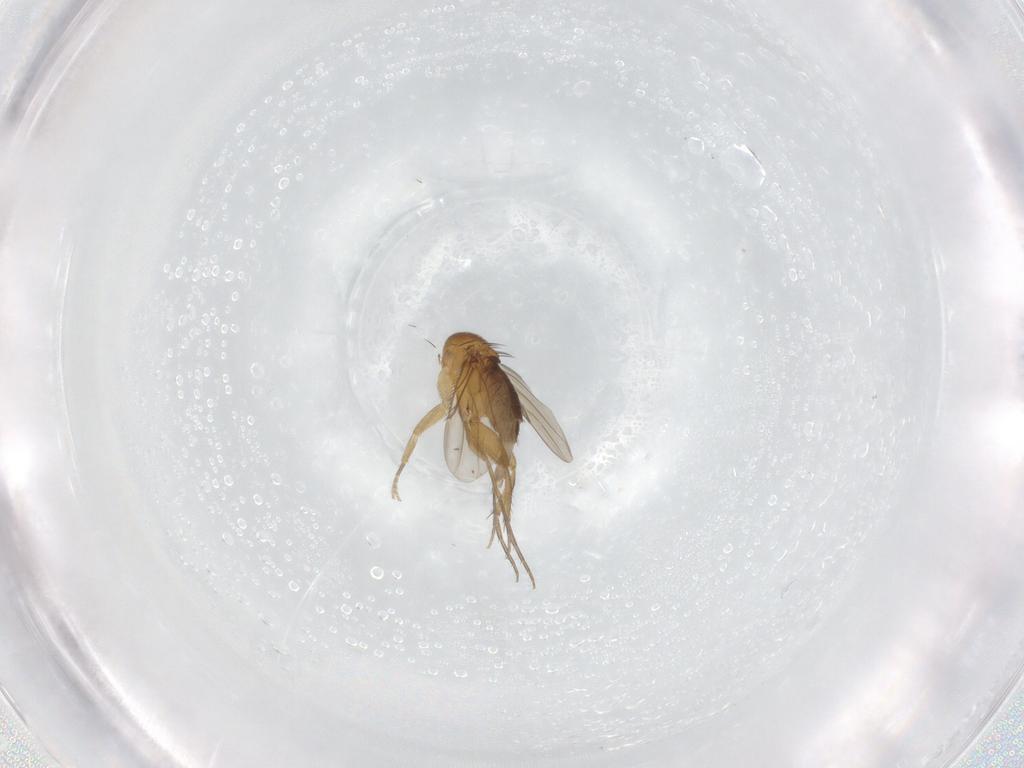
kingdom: Animalia
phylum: Arthropoda
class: Insecta
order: Diptera
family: Phoridae
